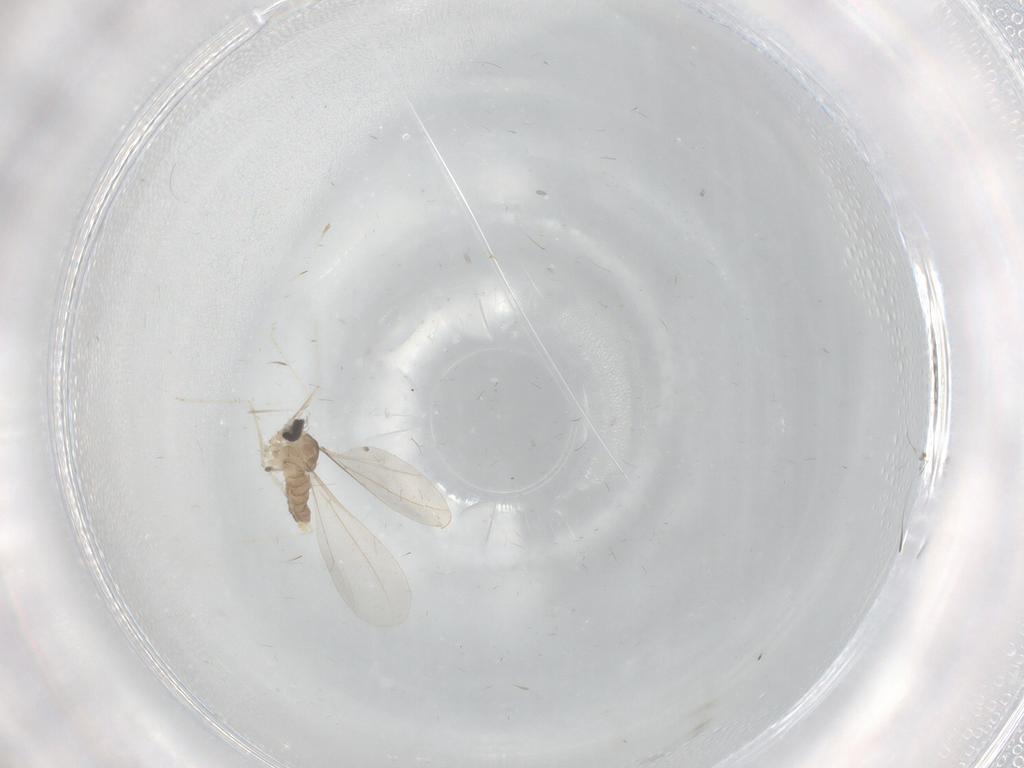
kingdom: Animalia
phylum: Arthropoda
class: Insecta
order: Diptera
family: Cecidomyiidae
